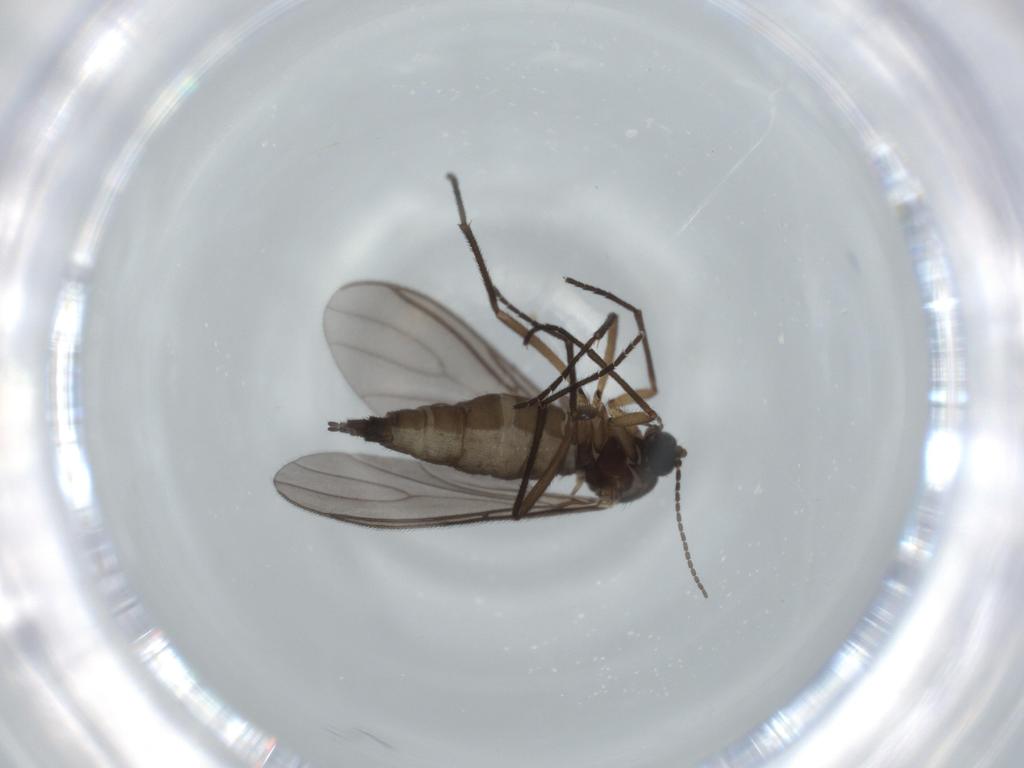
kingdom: Animalia
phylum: Arthropoda
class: Insecta
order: Diptera
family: Sciaridae
